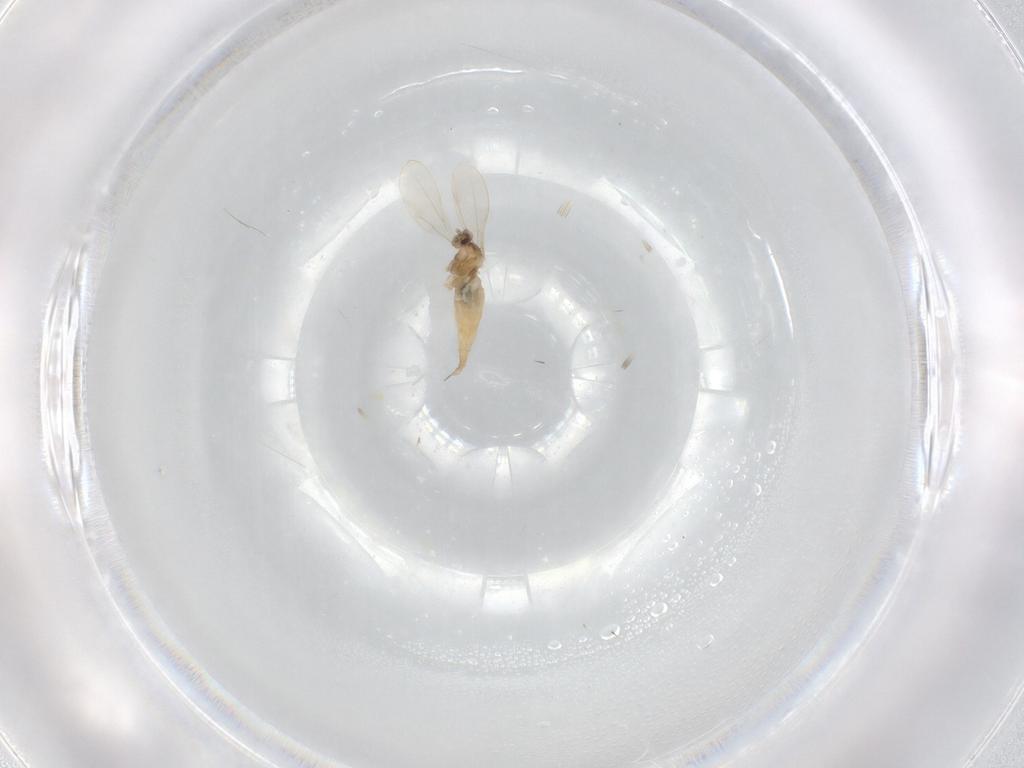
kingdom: Animalia
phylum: Arthropoda
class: Insecta
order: Diptera
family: Cecidomyiidae
